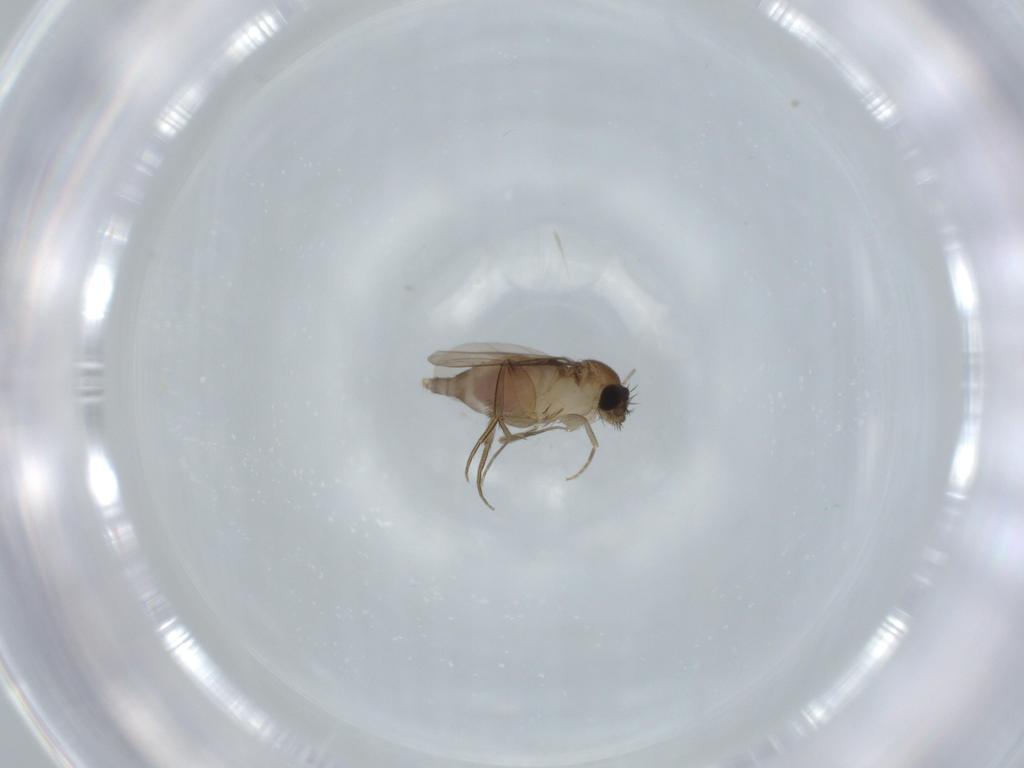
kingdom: Animalia
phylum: Arthropoda
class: Insecta
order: Diptera
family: Phoridae
